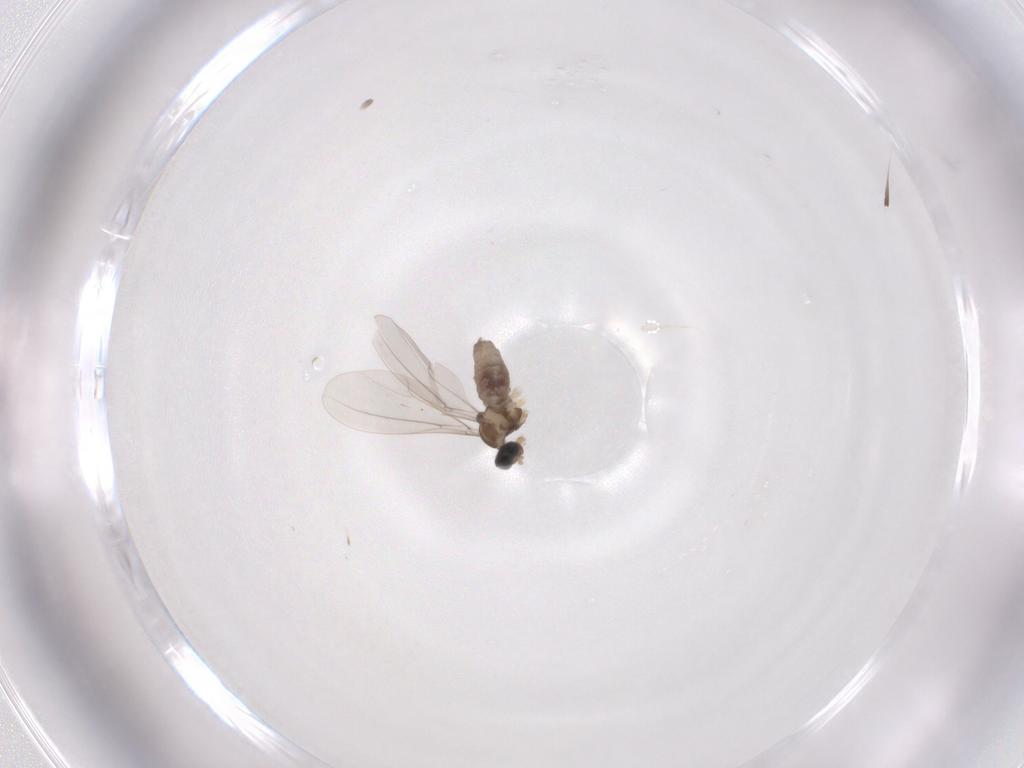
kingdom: Animalia
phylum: Arthropoda
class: Insecta
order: Diptera
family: Cecidomyiidae
